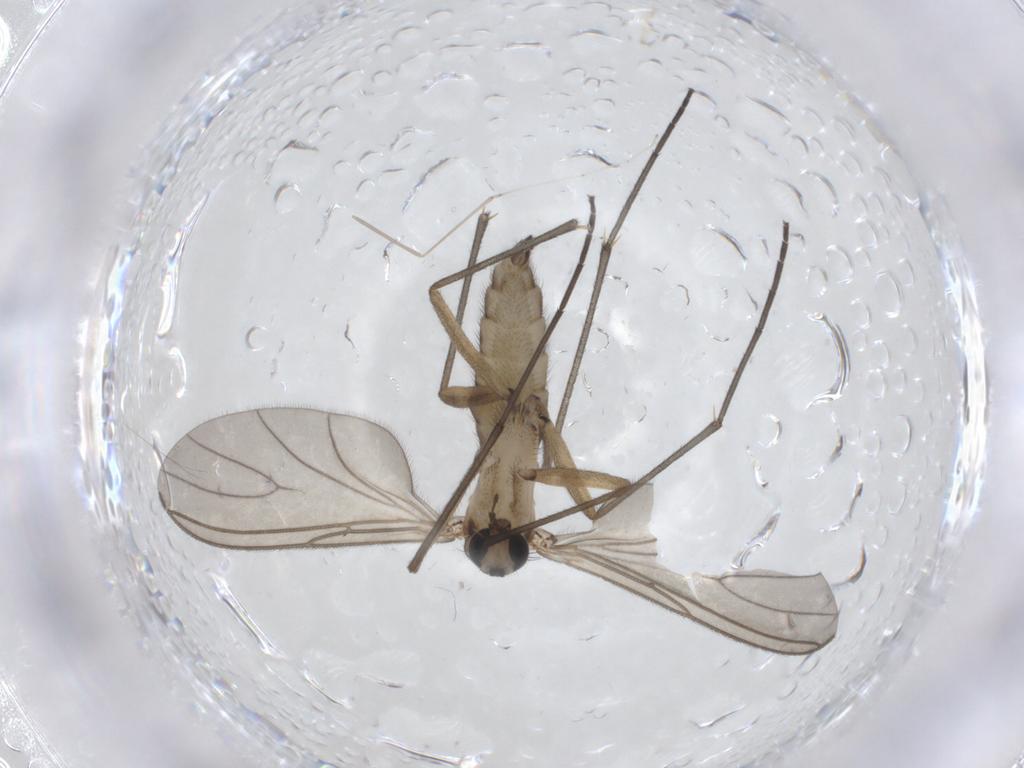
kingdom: Animalia
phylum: Arthropoda
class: Insecta
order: Diptera
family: Sciaridae
